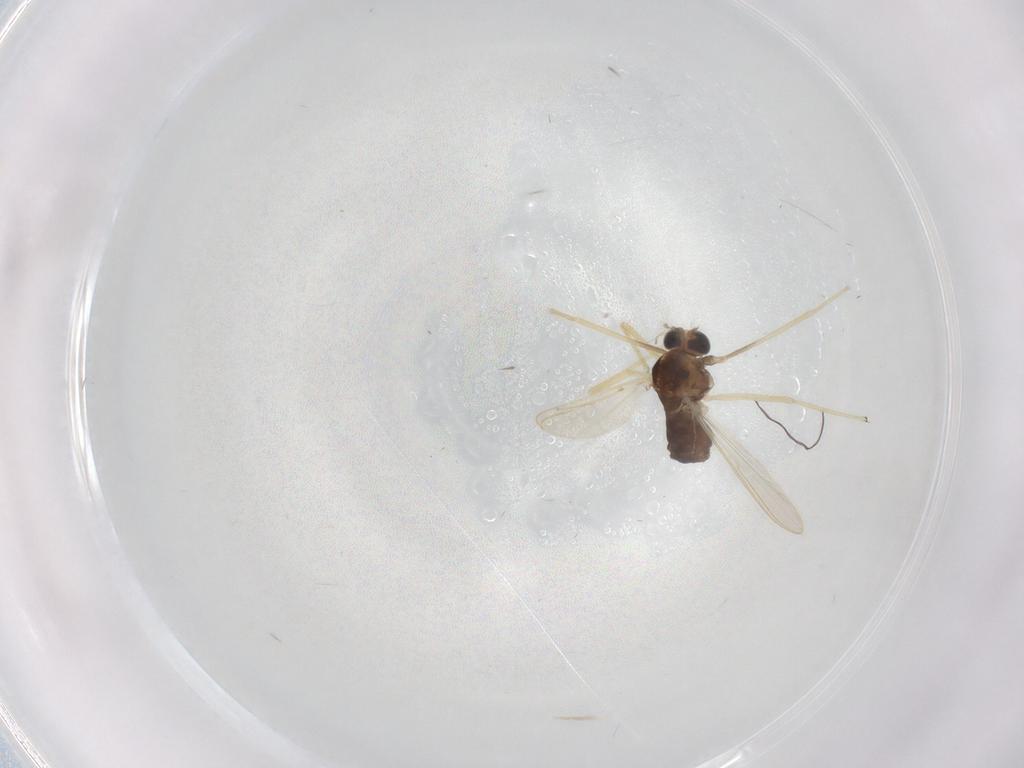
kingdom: Animalia
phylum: Arthropoda
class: Insecta
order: Diptera
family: Chironomidae
